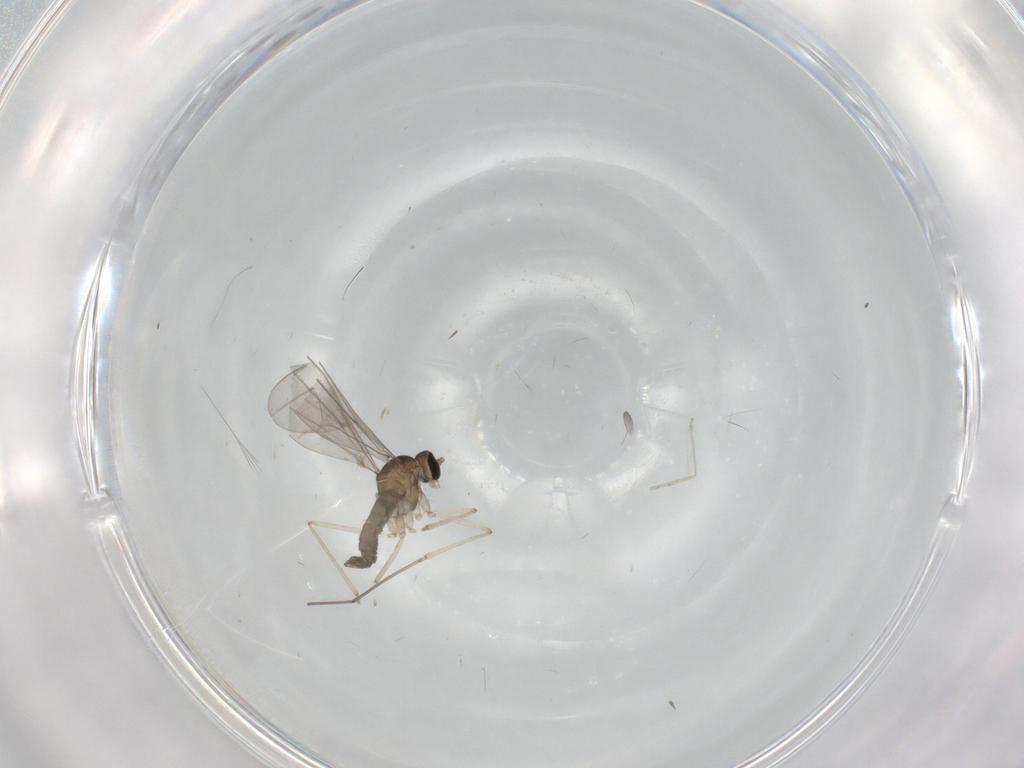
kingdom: Animalia
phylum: Arthropoda
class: Insecta
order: Diptera
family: Cecidomyiidae
